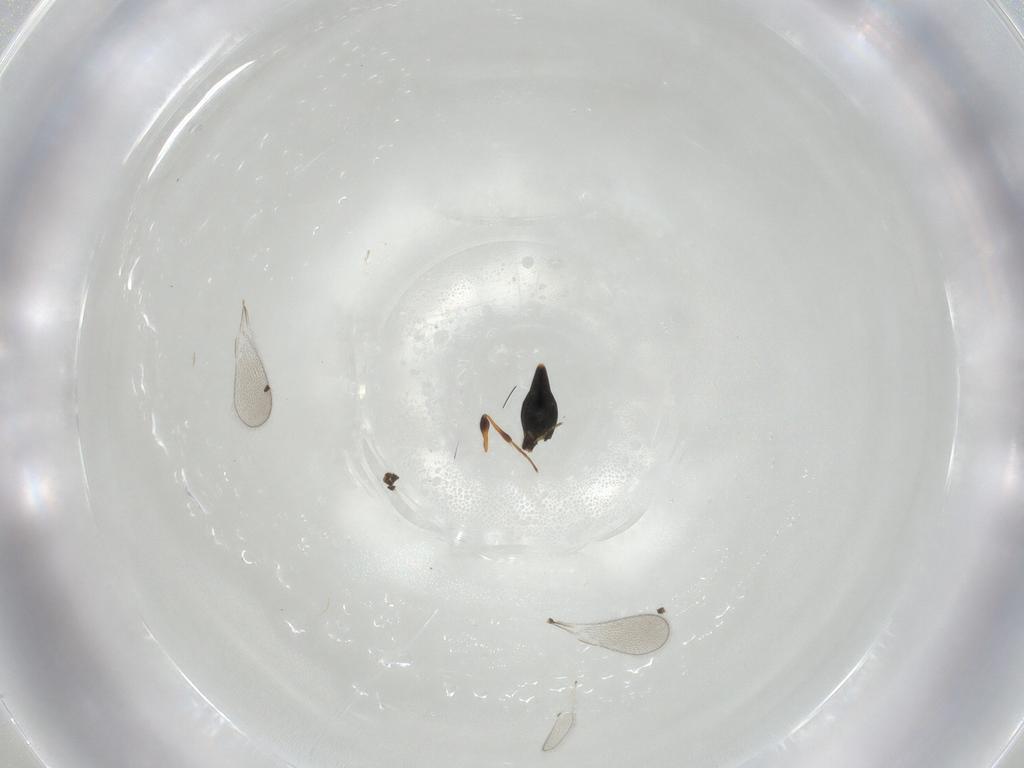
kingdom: Animalia
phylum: Arthropoda
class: Insecta
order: Hymenoptera
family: Platygastridae
